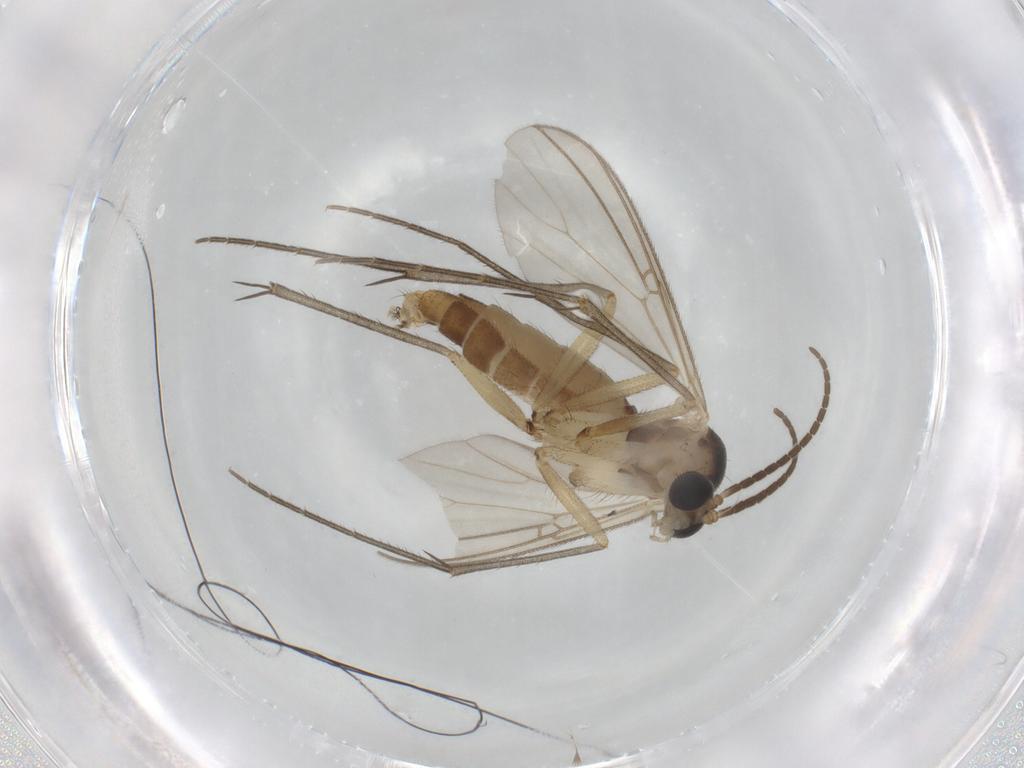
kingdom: Animalia
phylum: Arthropoda
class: Insecta
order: Diptera
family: Mycetophilidae
